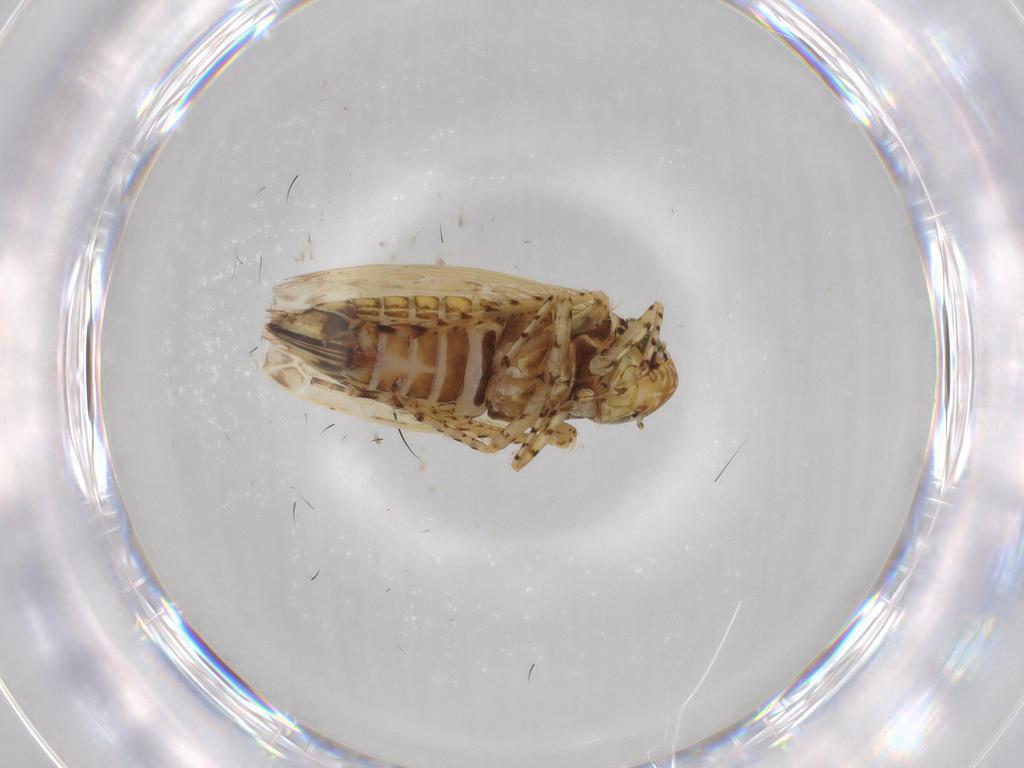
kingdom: Animalia
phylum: Arthropoda
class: Insecta
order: Hemiptera
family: Cicadellidae
